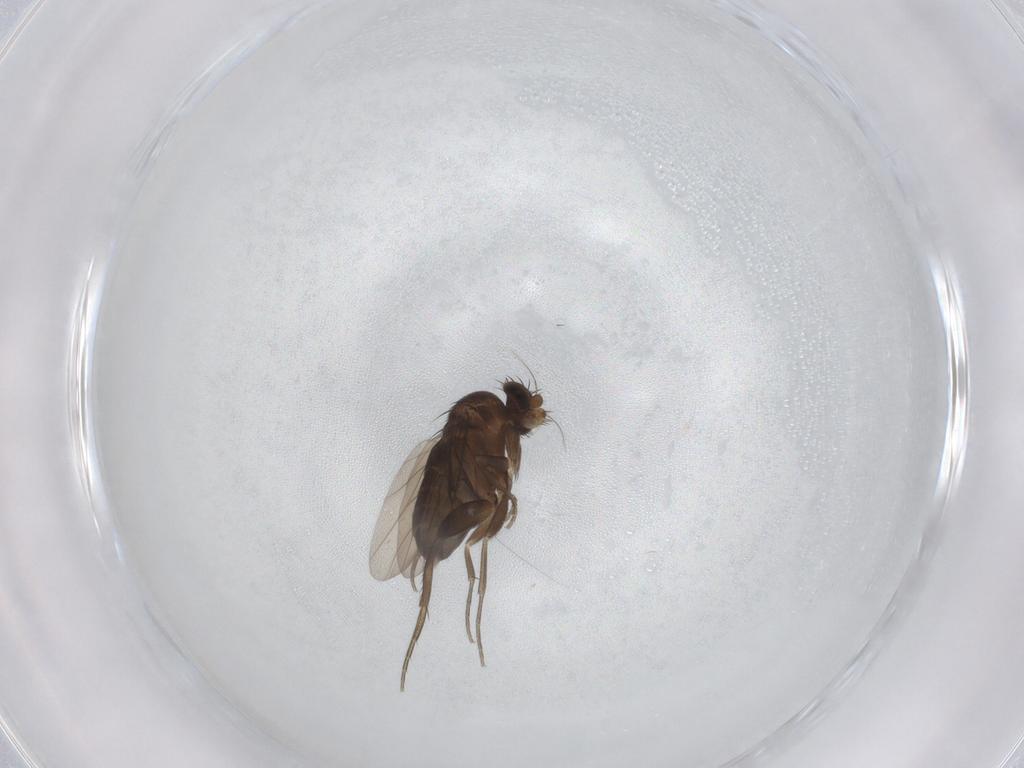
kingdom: Animalia
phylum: Arthropoda
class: Insecta
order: Diptera
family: Phoridae
